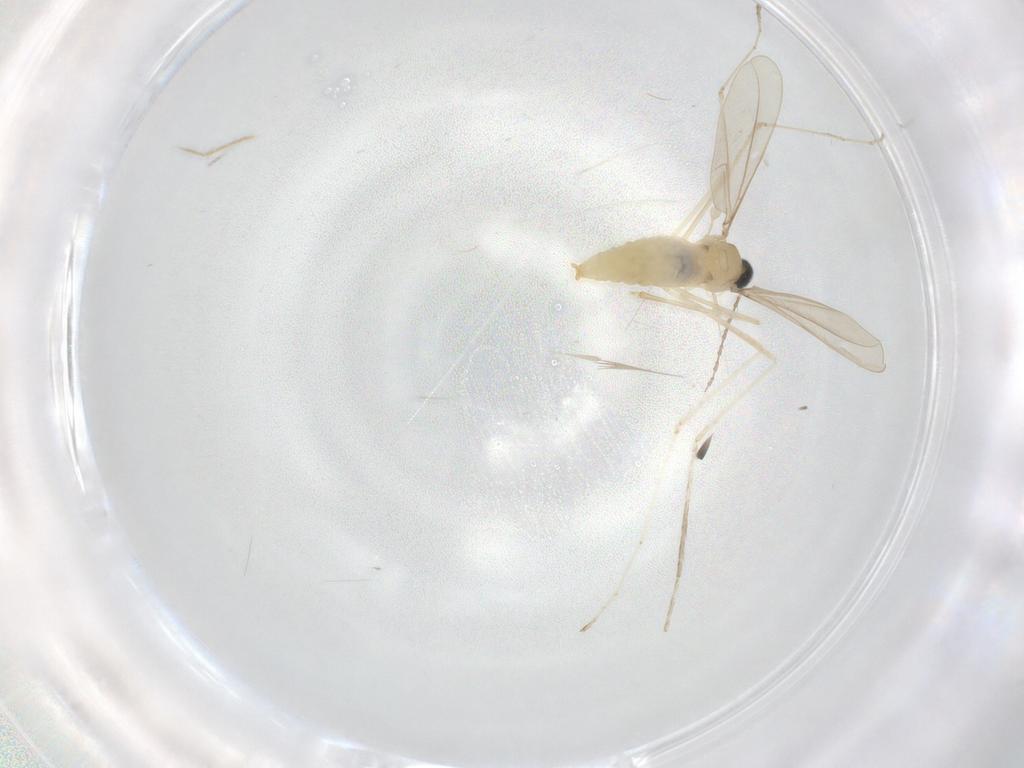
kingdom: Animalia
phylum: Arthropoda
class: Insecta
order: Diptera
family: Cecidomyiidae
